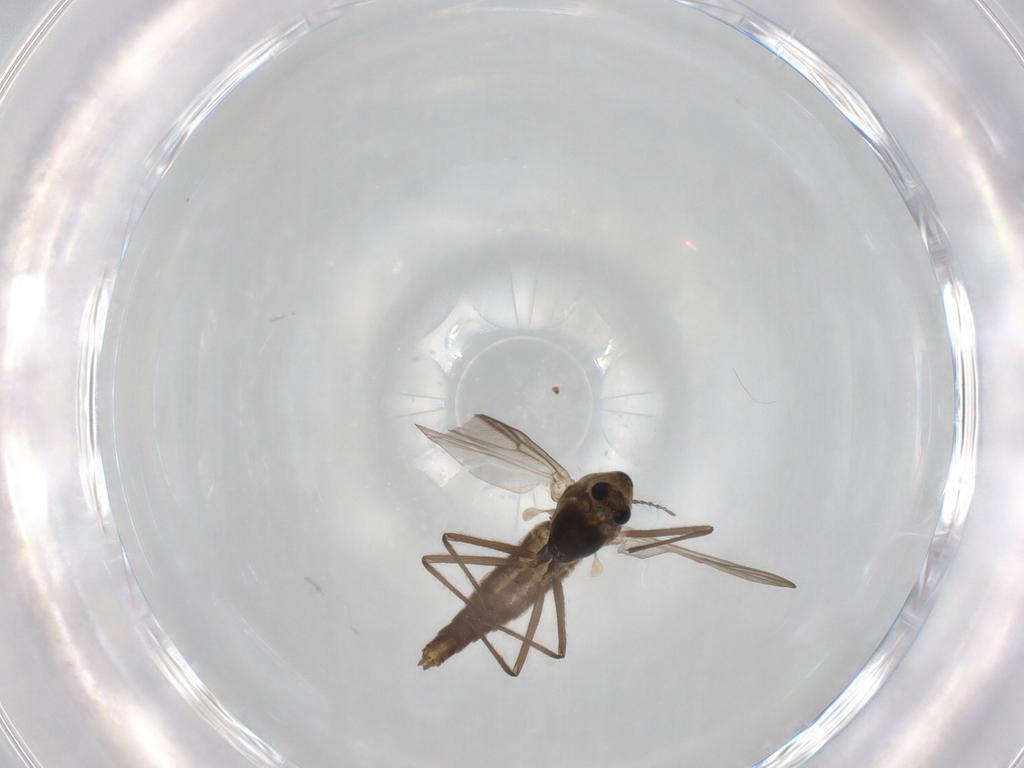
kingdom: Animalia
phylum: Arthropoda
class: Insecta
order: Diptera
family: Chironomidae
